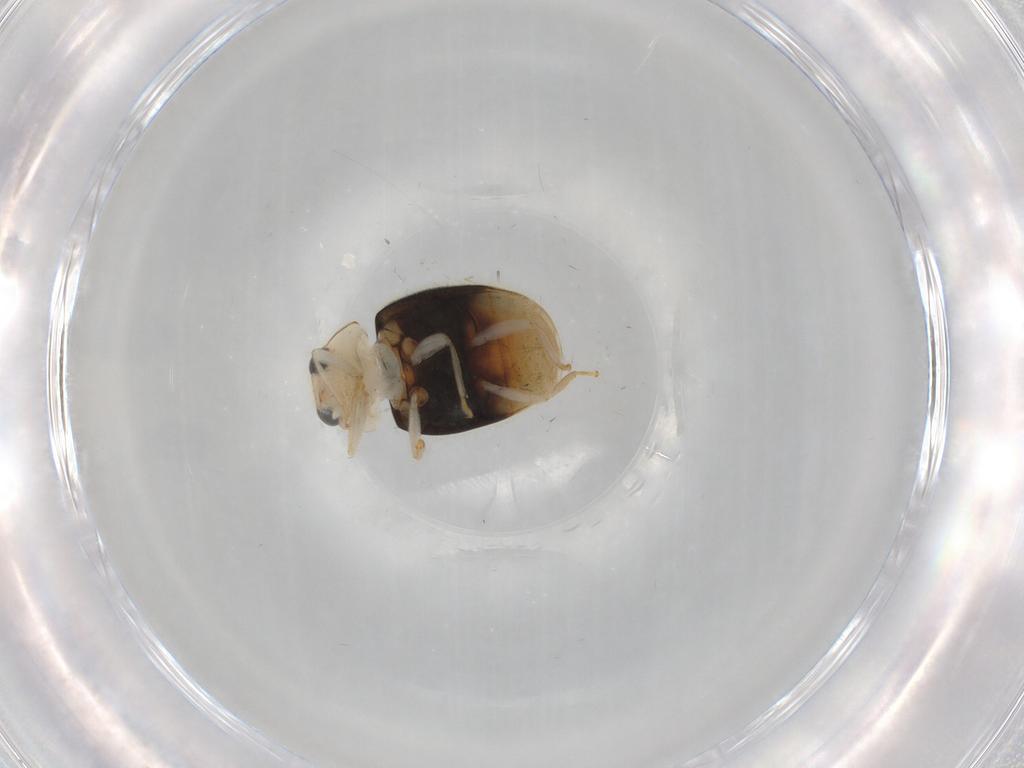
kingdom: Animalia
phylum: Arthropoda
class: Insecta
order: Coleoptera
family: Coccinellidae
